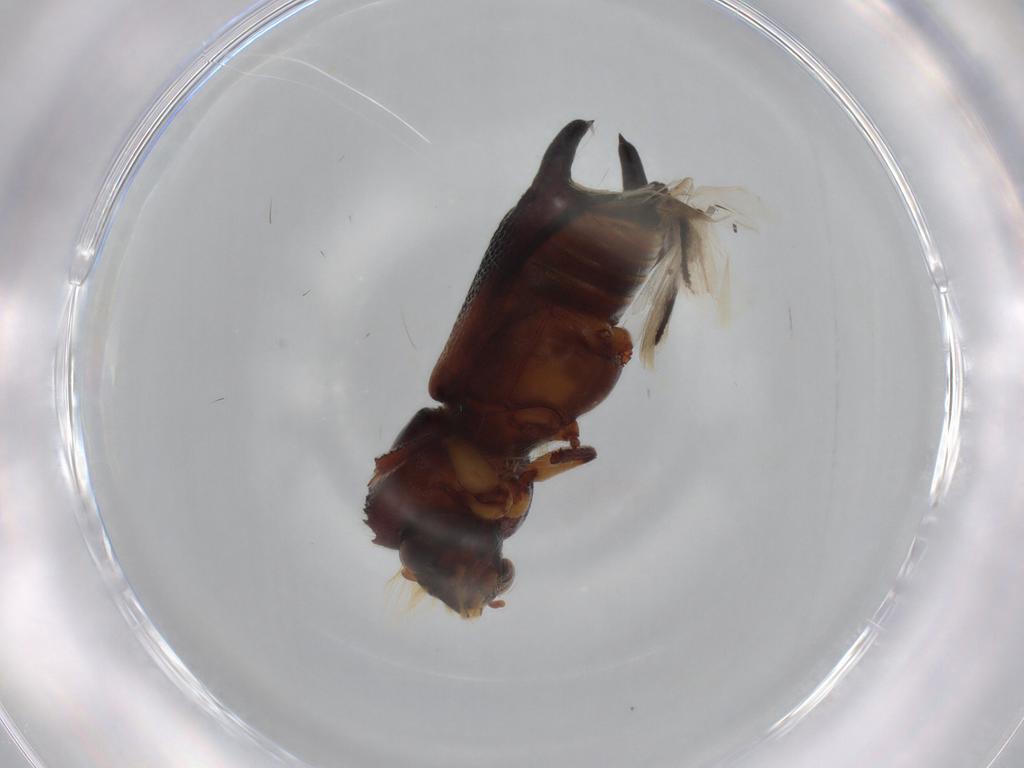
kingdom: Animalia
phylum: Arthropoda
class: Insecta
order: Coleoptera
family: Bostrichidae
